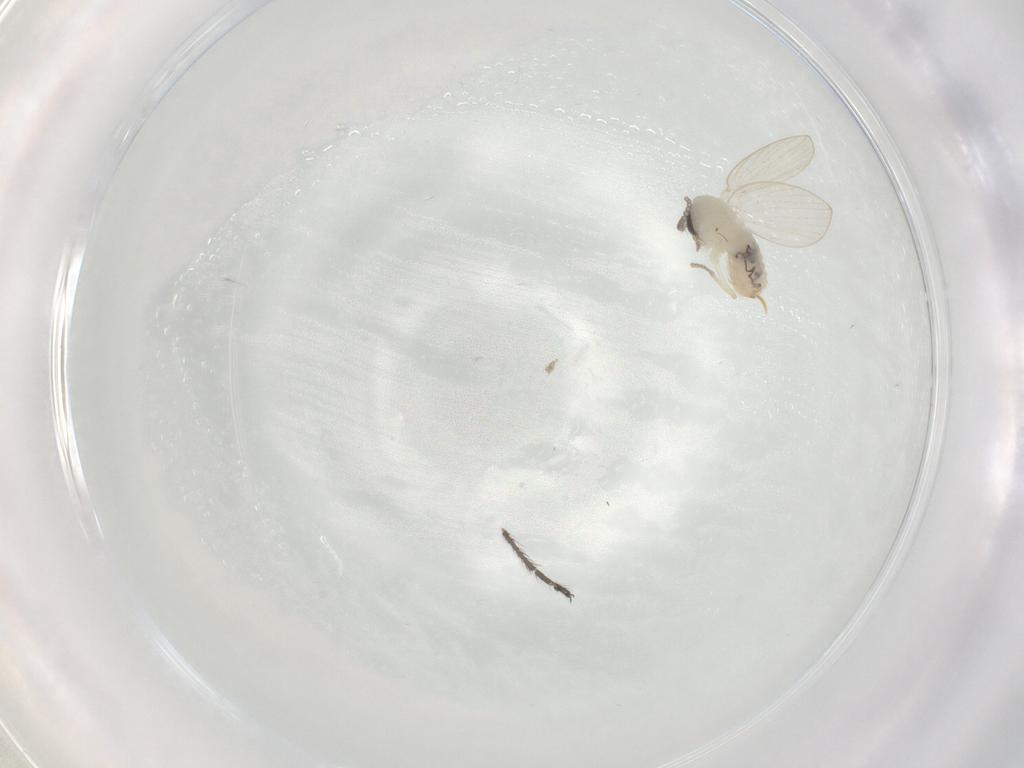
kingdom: Animalia
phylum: Arthropoda
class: Insecta
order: Diptera
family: Psychodidae
